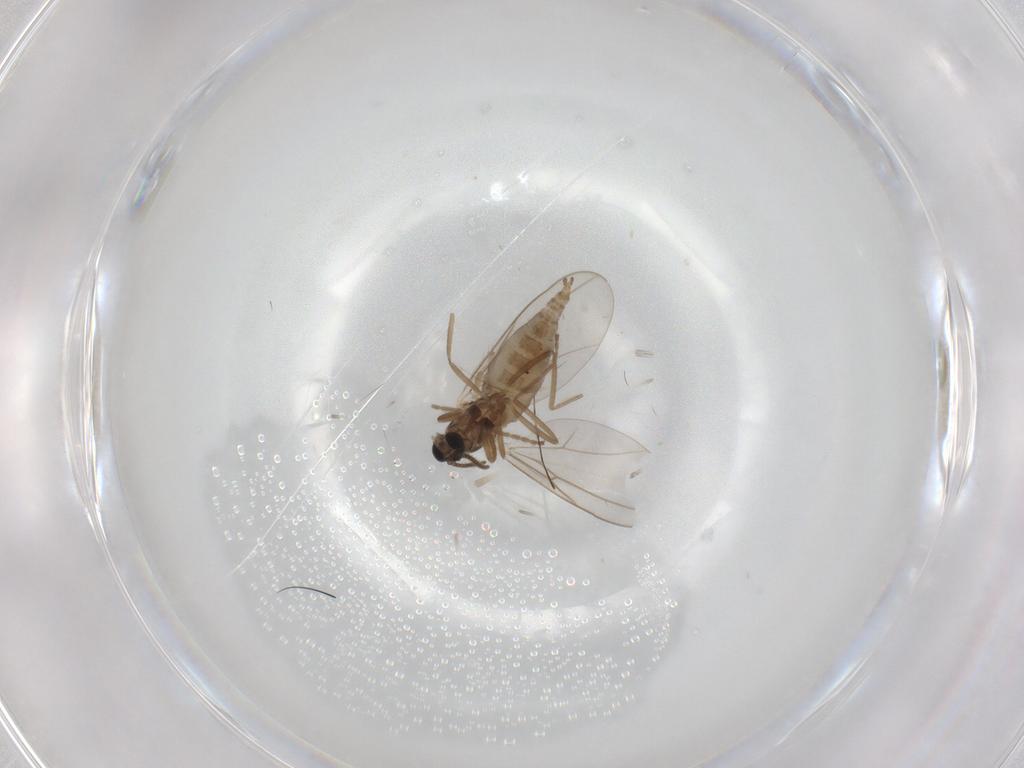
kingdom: Animalia
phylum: Arthropoda
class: Insecta
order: Diptera
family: Cecidomyiidae
